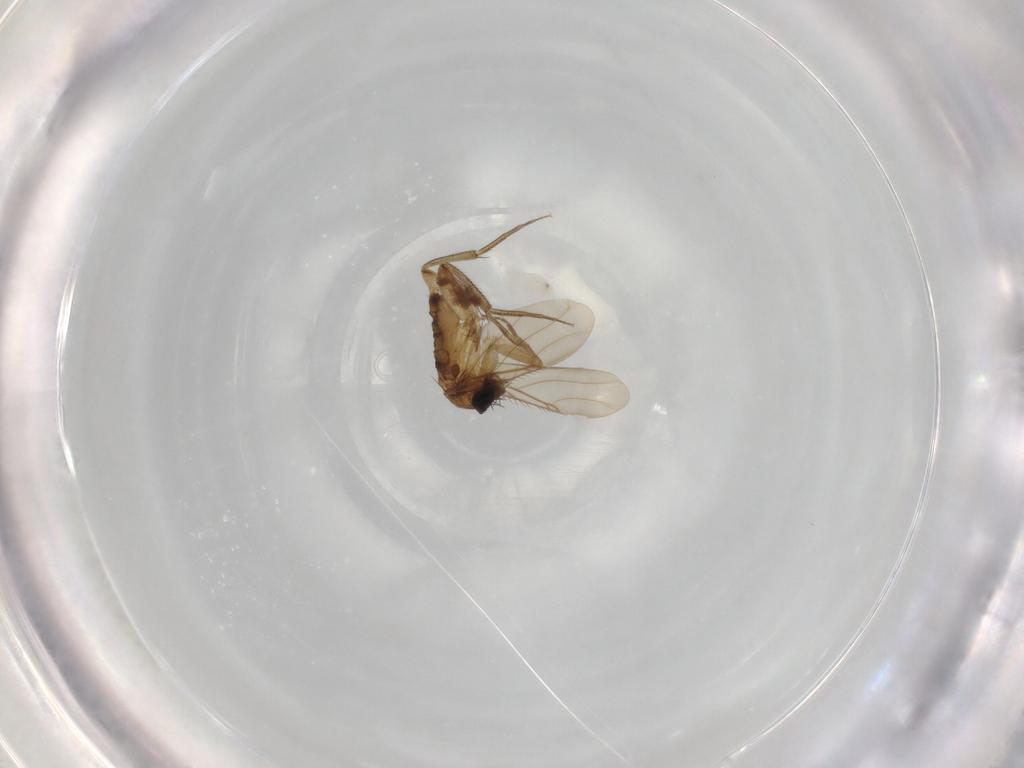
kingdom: Animalia
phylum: Arthropoda
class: Insecta
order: Diptera
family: Phoridae
